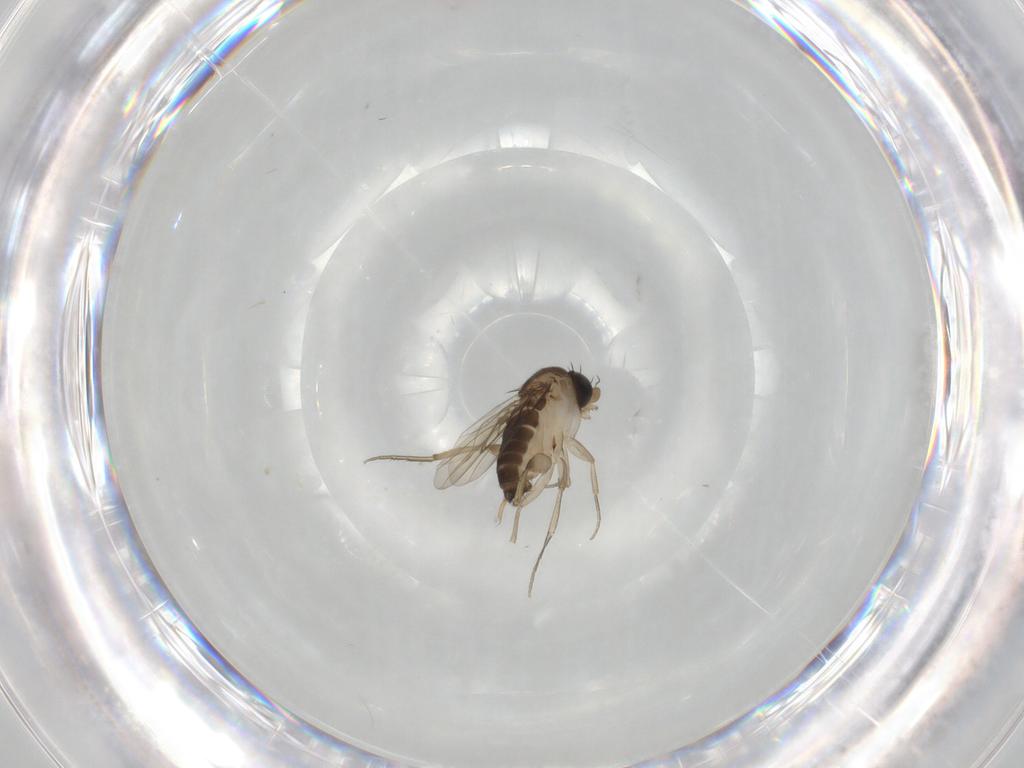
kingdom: Animalia
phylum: Arthropoda
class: Insecta
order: Diptera
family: Phoridae
